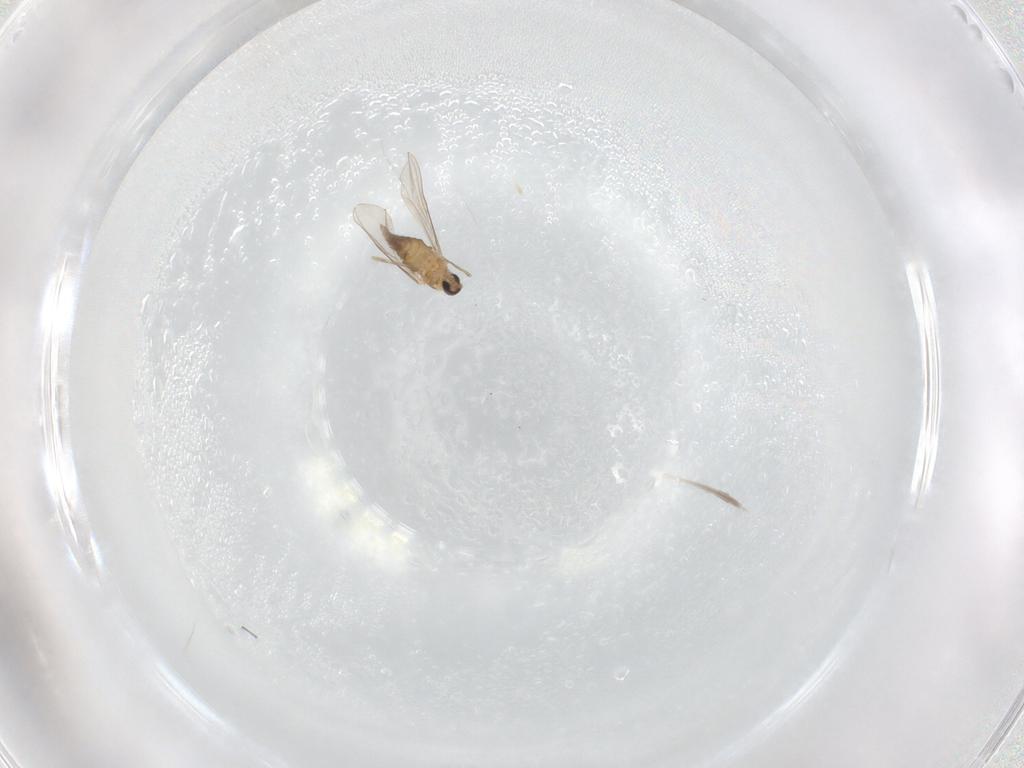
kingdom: Animalia
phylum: Arthropoda
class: Insecta
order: Diptera
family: Cecidomyiidae
